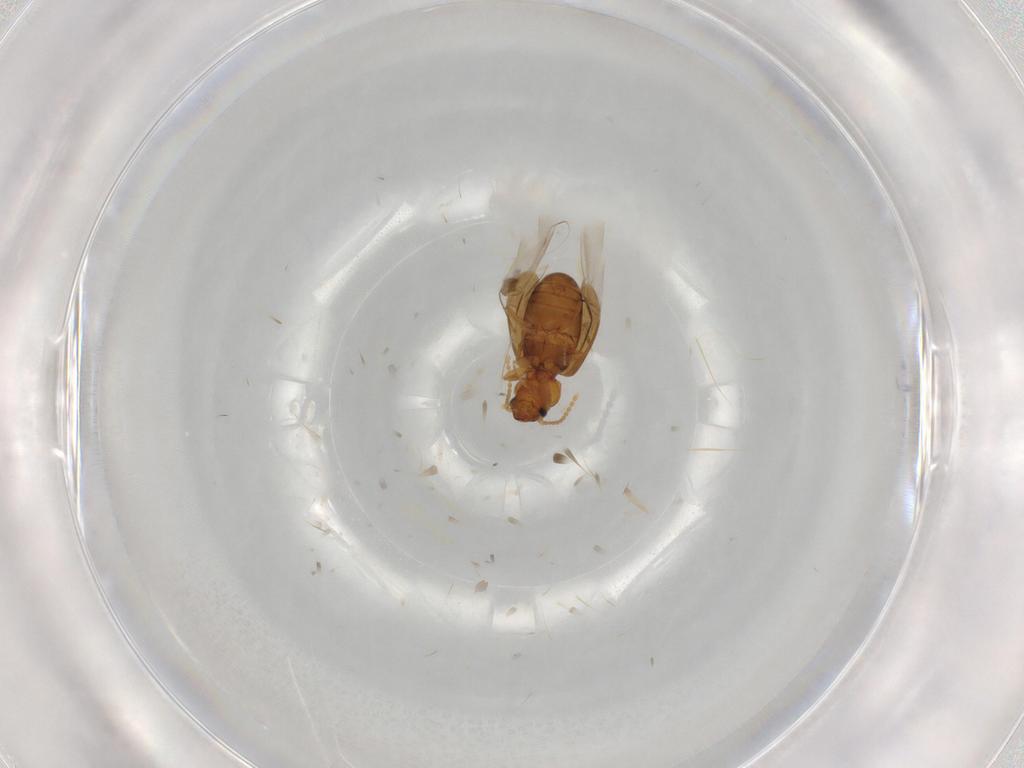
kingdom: Animalia
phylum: Arthropoda
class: Insecta
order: Coleoptera
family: Carabidae
